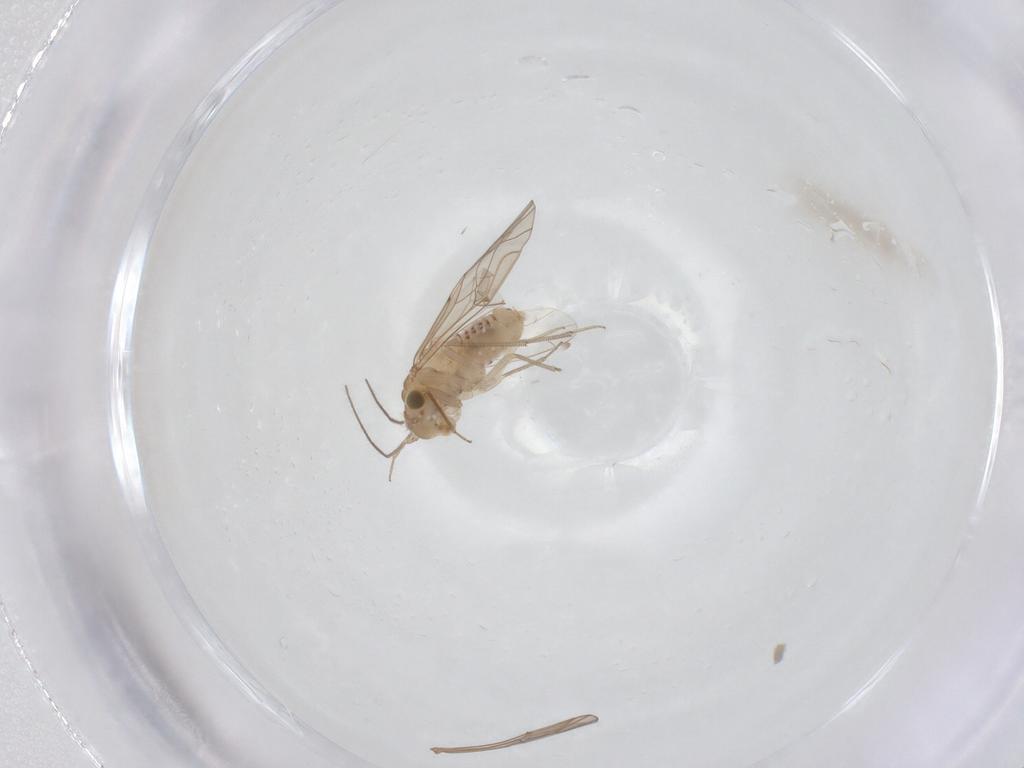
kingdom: Animalia
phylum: Arthropoda
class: Insecta
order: Psocodea
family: Lachesillidae
